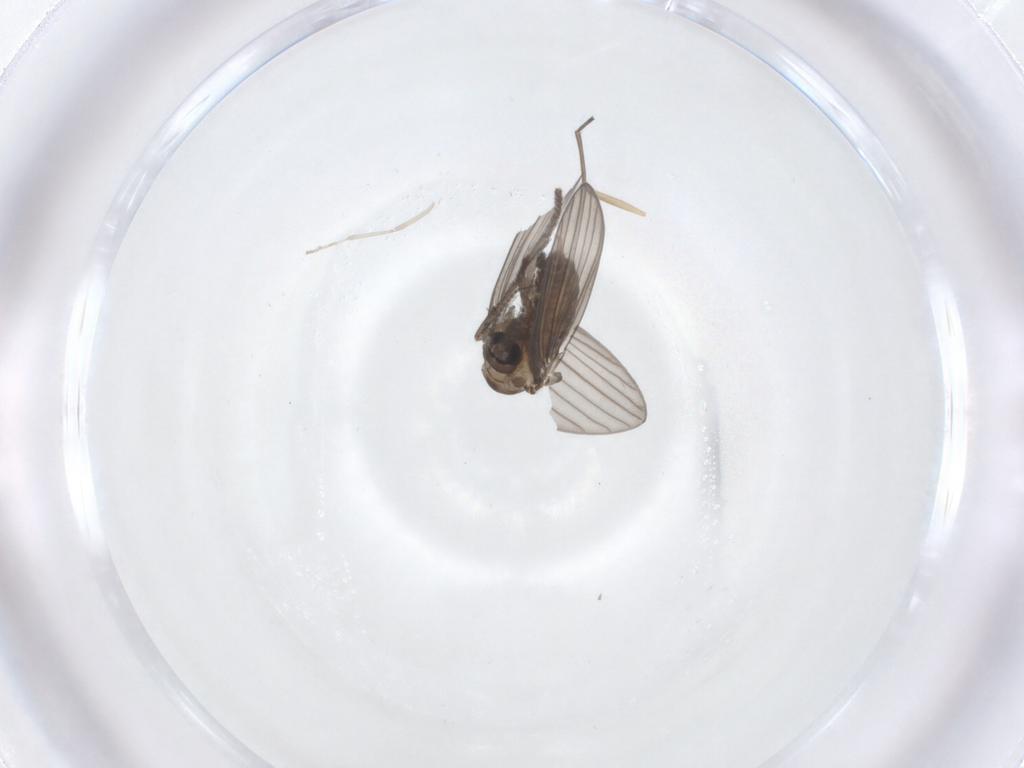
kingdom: Animalia
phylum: Arthropoda
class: Insecta
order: Diptera
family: Psychodidae
